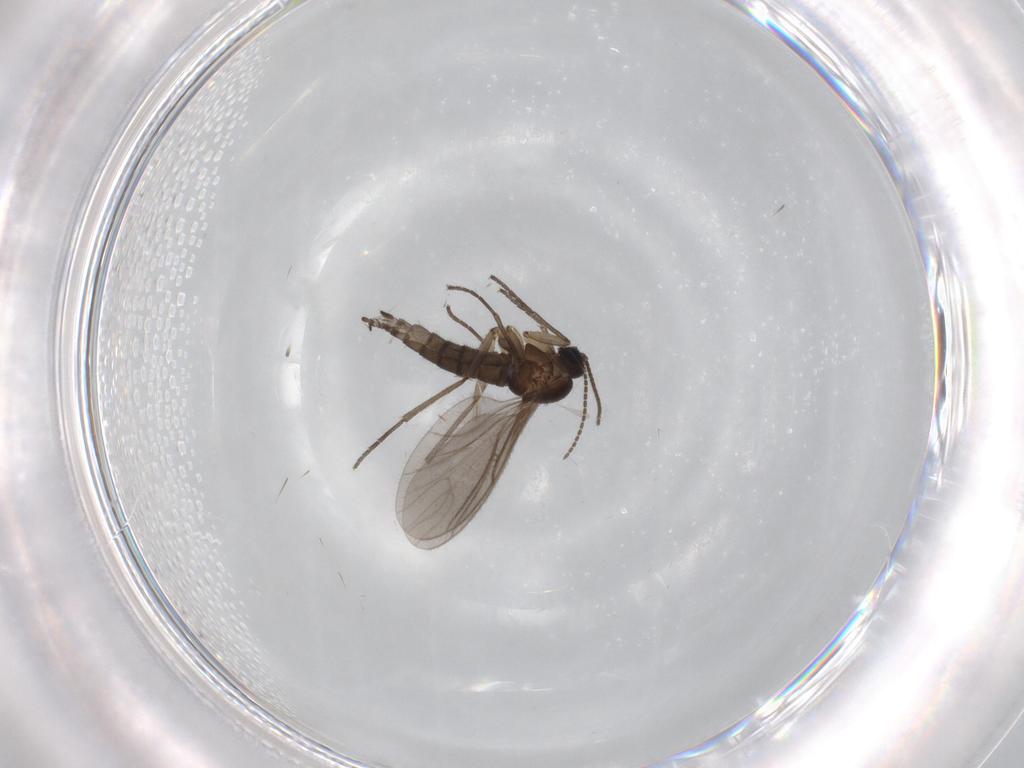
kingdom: Animalia
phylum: Arthropoda
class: Insecta
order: Diptera
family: Sciaridae
